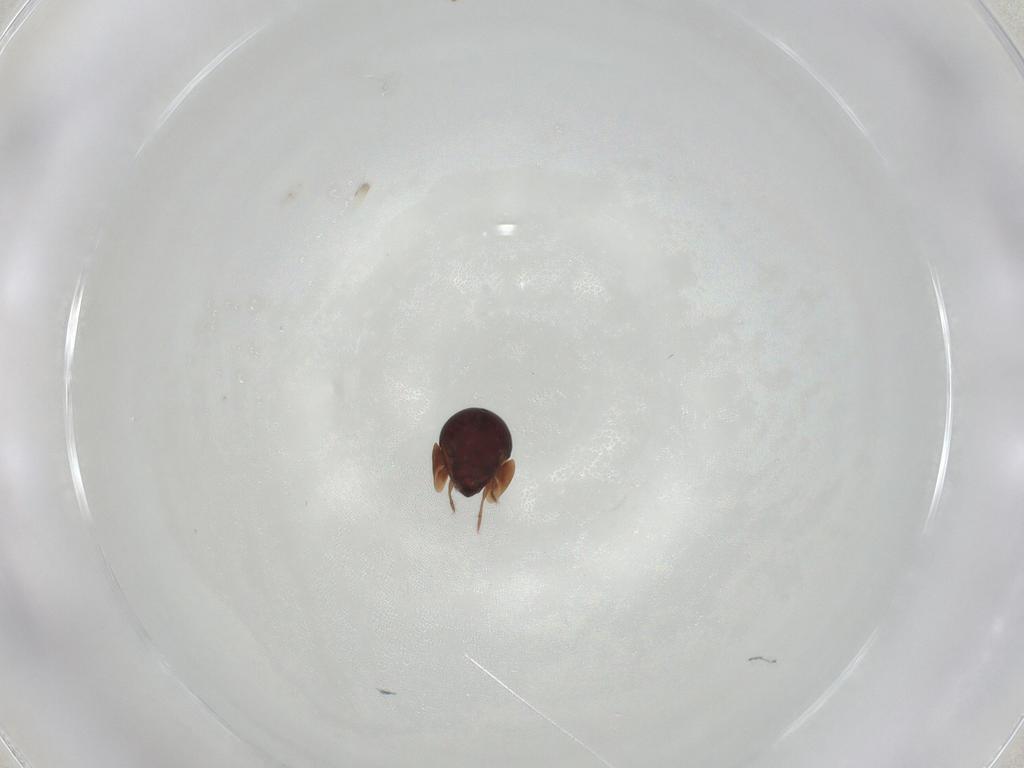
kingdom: Animalia
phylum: Arthropoda
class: Arachnida
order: Sarcoptiformes
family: Galumnidae
